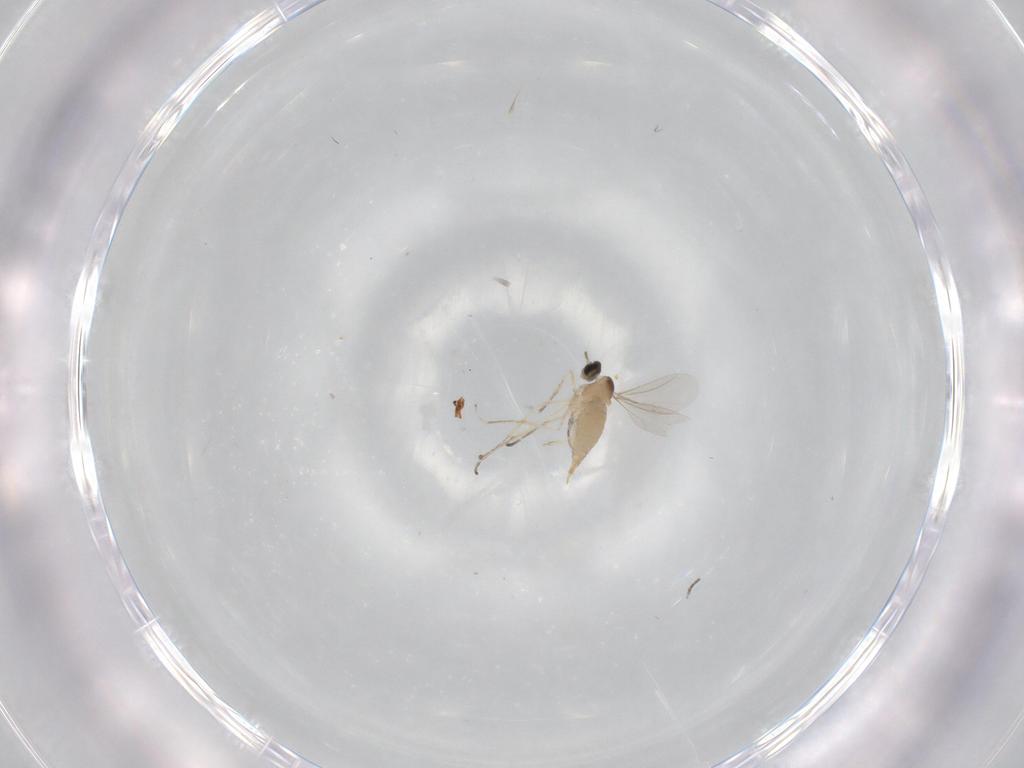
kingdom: Animalia
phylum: Arthropoda
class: Insecta
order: Diptera
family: Cecidomyiidae
